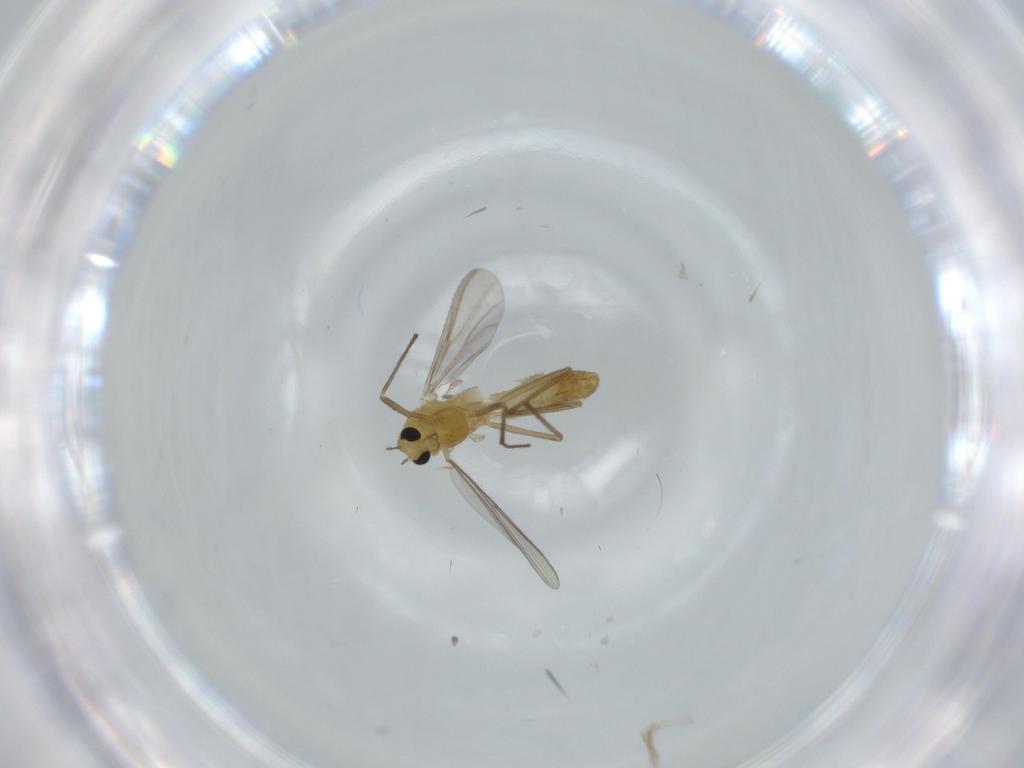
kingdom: Animalia
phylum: Arthropoda
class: Insecta
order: Diptera
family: Chironomidae
